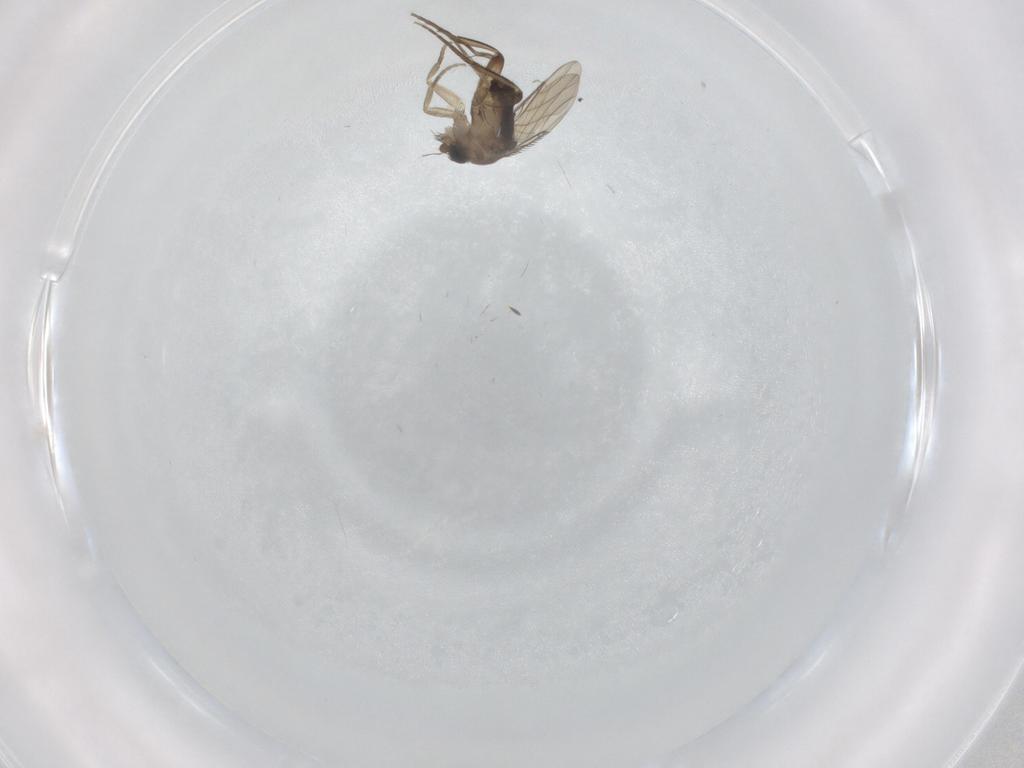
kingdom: Animalia
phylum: Arthropoda
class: Insecta
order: Diptera
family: Phoridae
